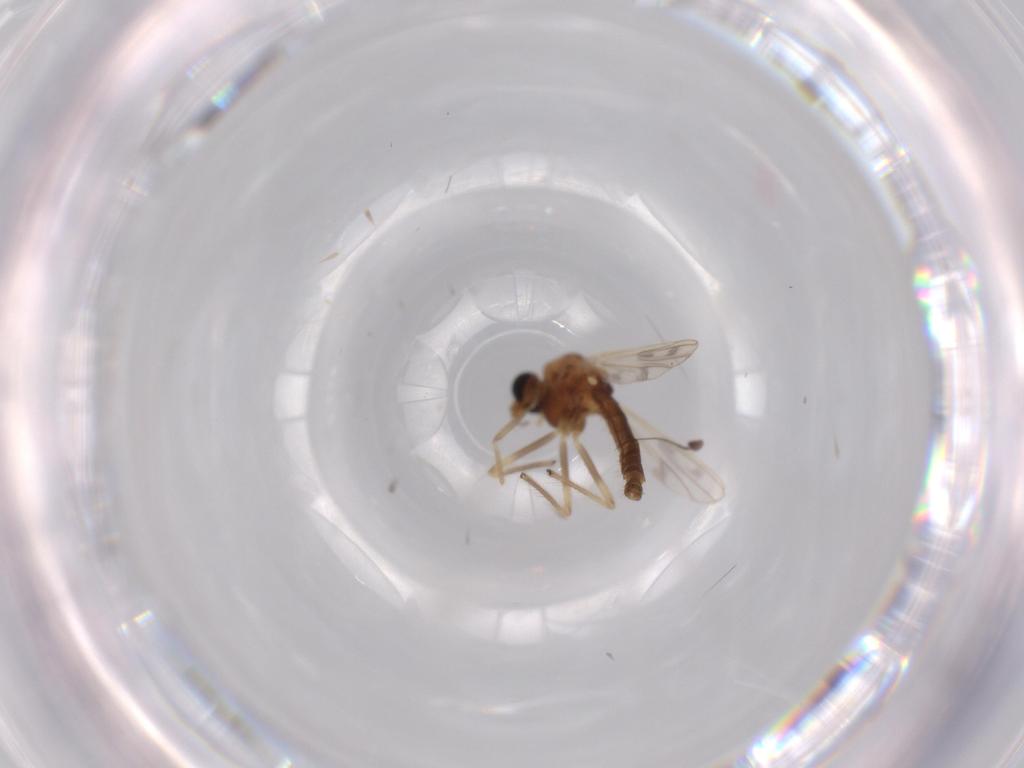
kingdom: Animalia
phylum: Arthropoda
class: Insecta
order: Diptera
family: Dolichopodidae
